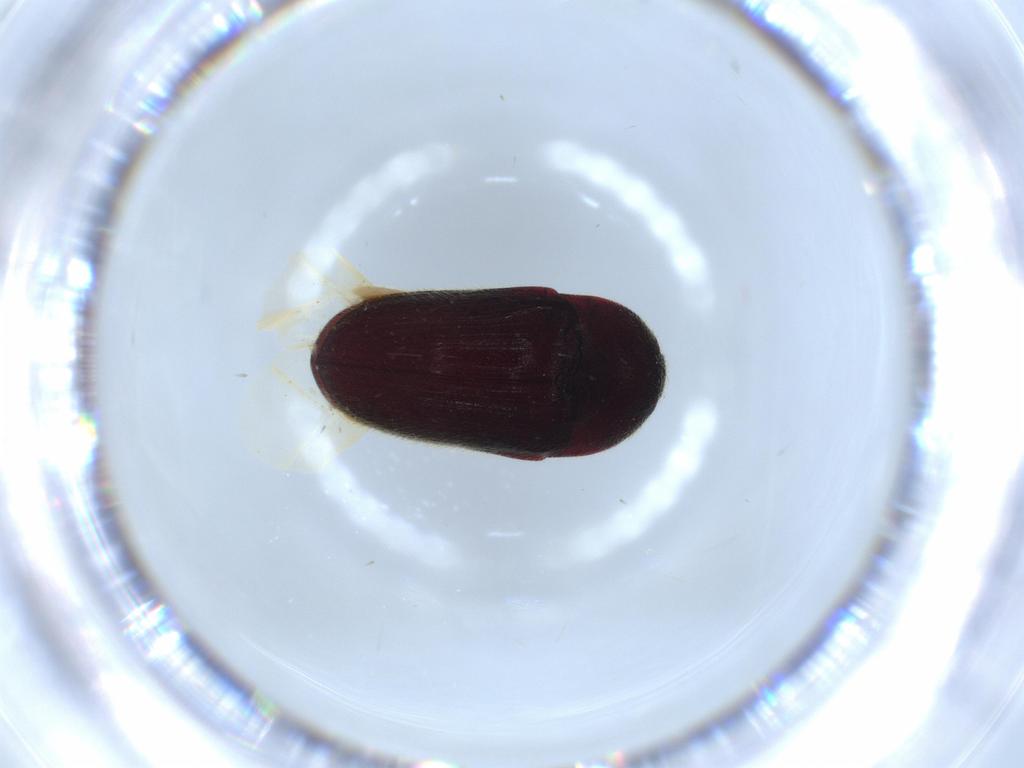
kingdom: Animalia
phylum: Arthropoda
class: Insecta
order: Coleoptera
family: Throscidae
